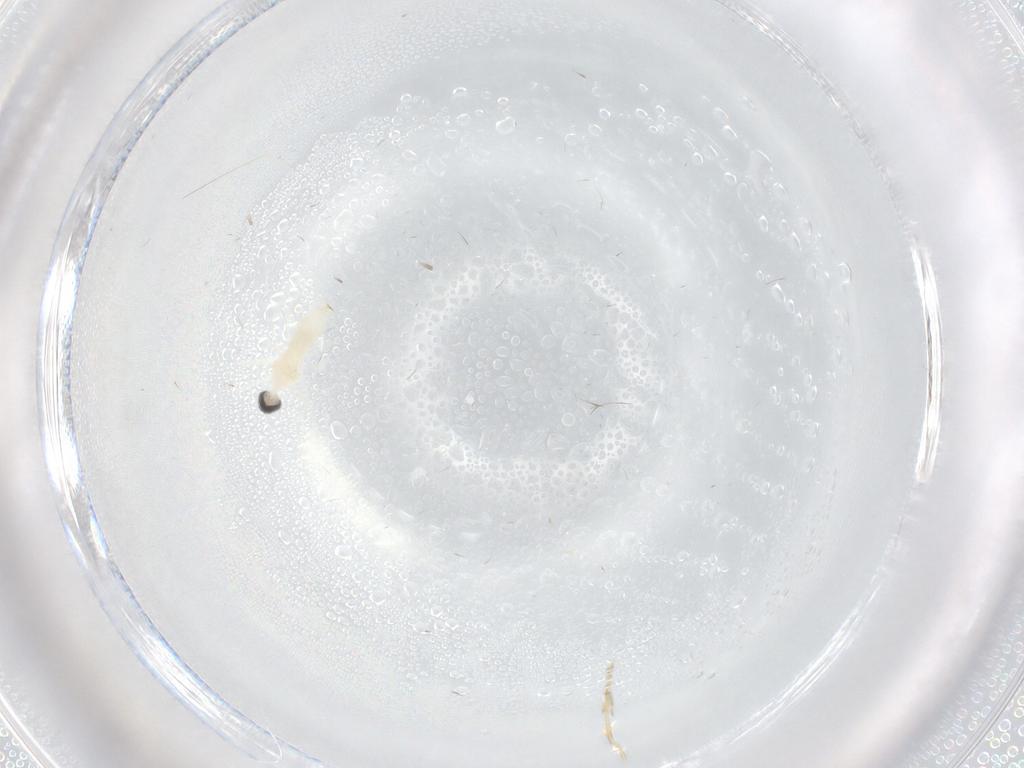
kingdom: Animalia
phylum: Arthropoda
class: Insecta
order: Diptera
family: Cecidomyiidae
